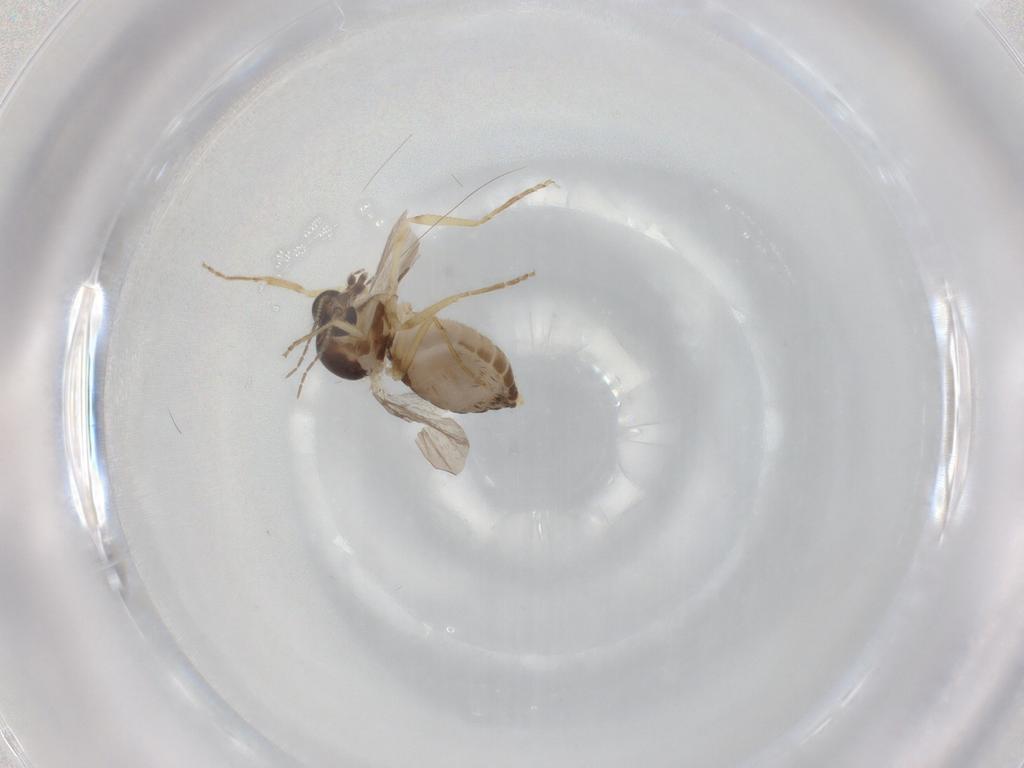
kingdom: Animalia
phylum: Arthropoda
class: Insecta
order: Diptera
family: Ceratopogonidae
